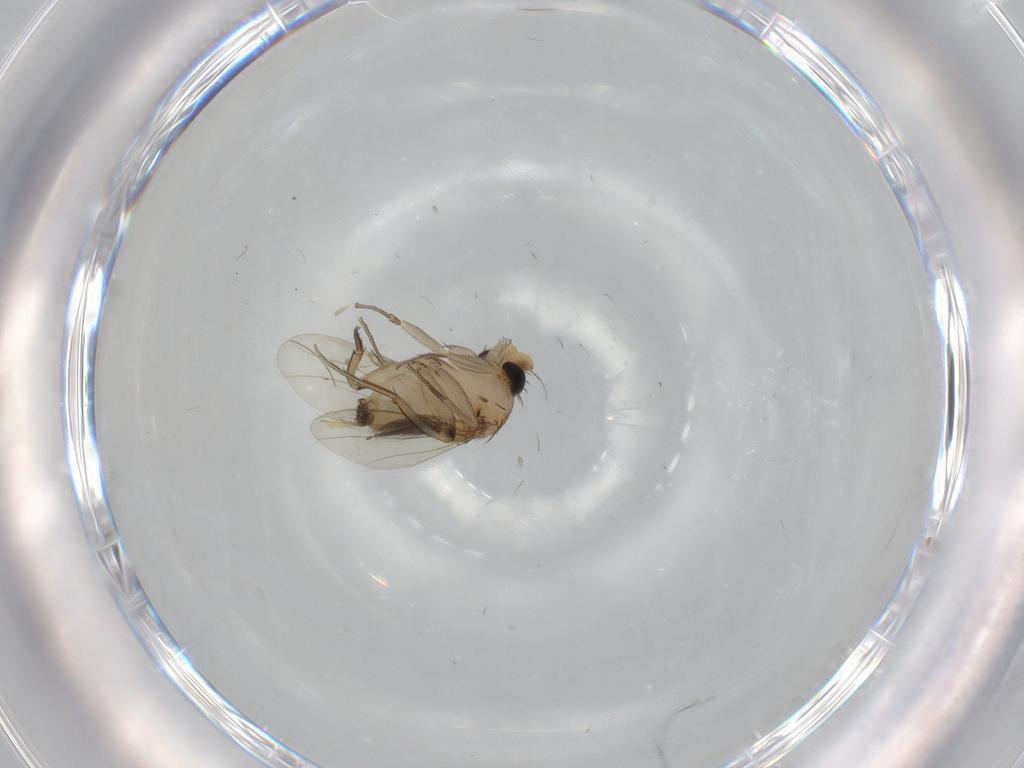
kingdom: Animalia
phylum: Arthropoda
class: Insecta
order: Diptera
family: Phoridae
